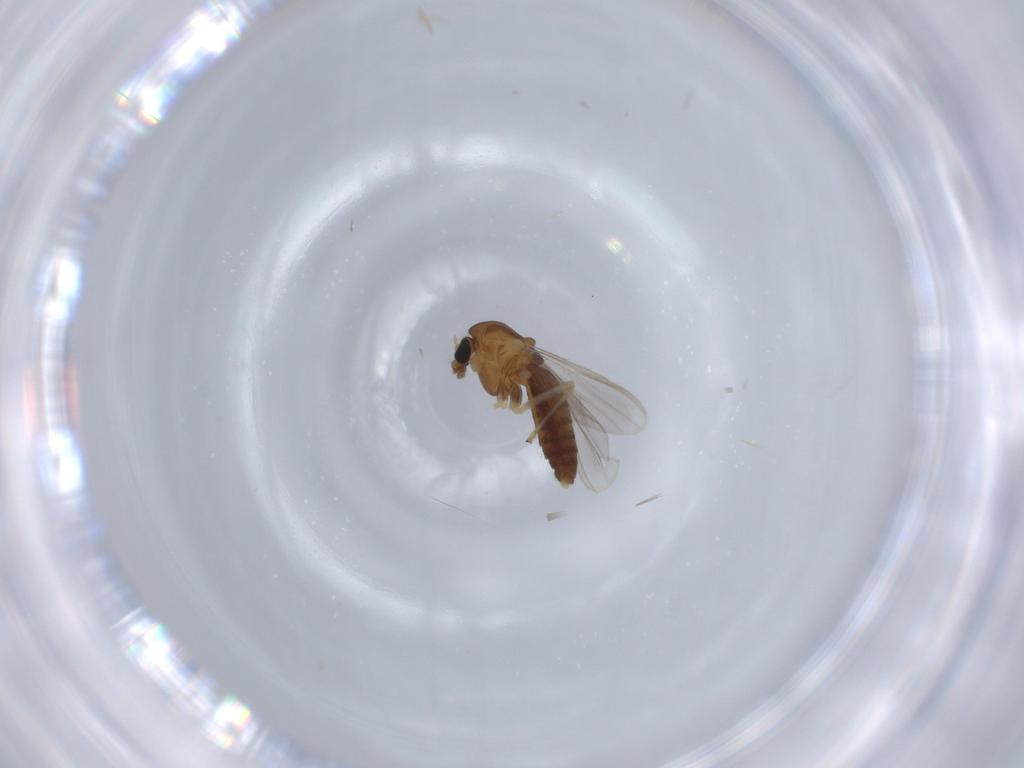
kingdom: Animalia
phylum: Arthropoda
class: Insecta
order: Diptera
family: Chironomidae
